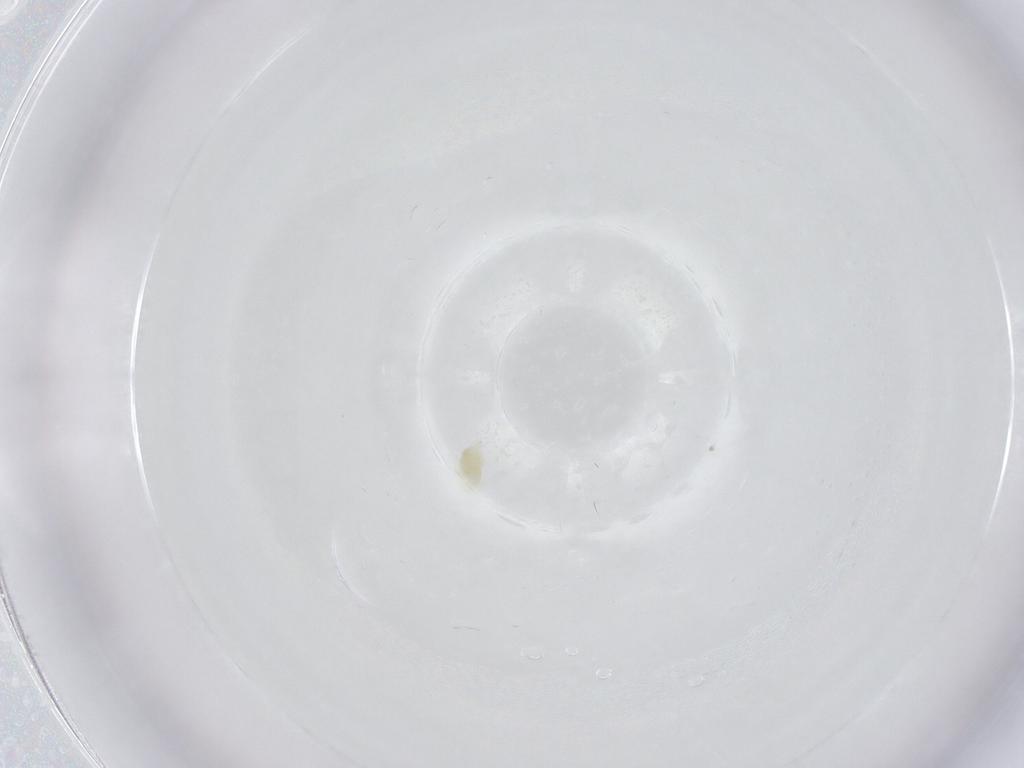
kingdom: Animalia
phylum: Arthropoda
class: Arachnida
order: Trombidiformes
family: Eupodidae
